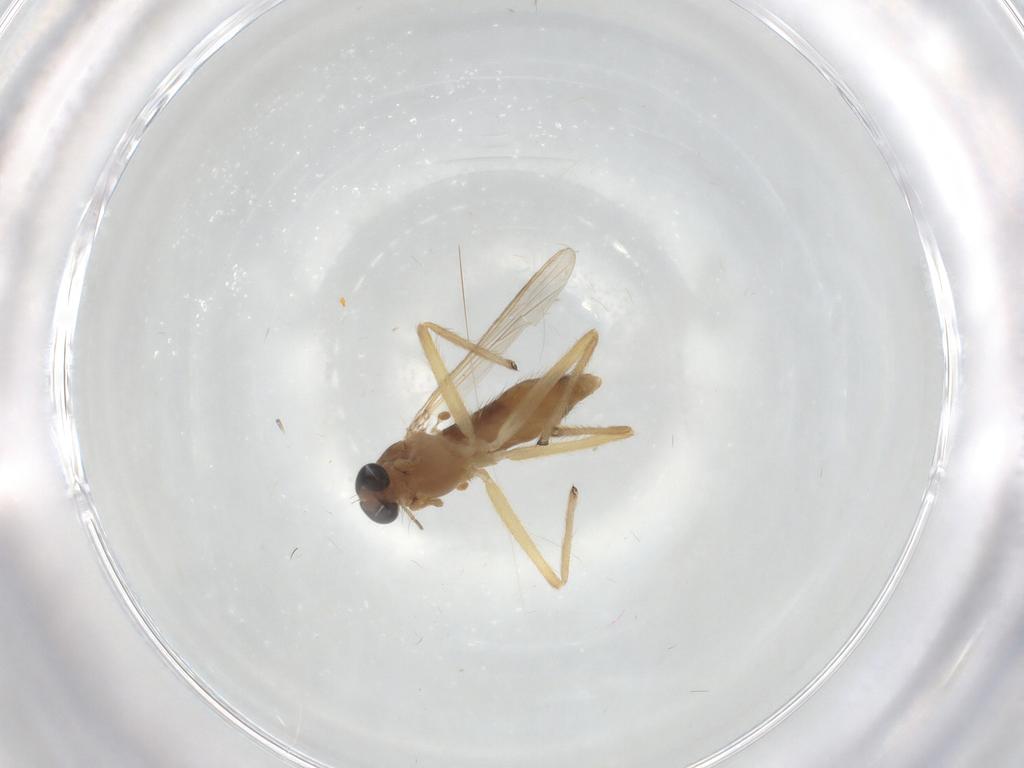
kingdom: Animalia
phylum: Arthropoda
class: Insecta
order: Diptera
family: Chironomidae
